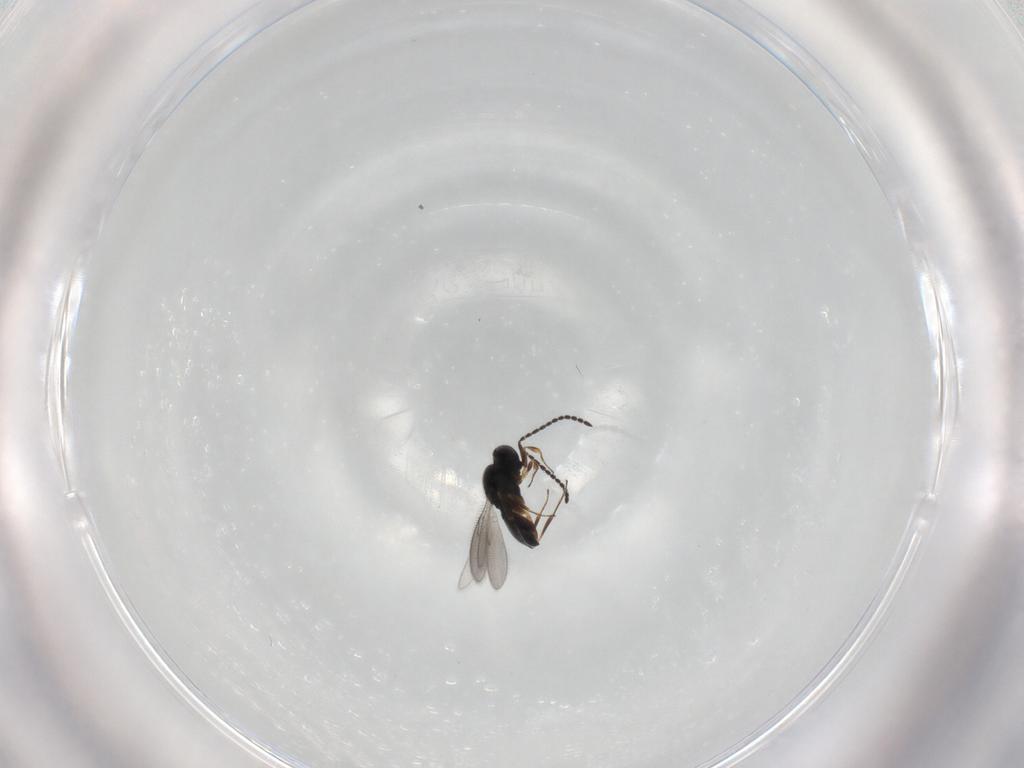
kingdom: Animalia
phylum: Arthropoda
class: Insecta
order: Hymenoptera
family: Scelionidae
